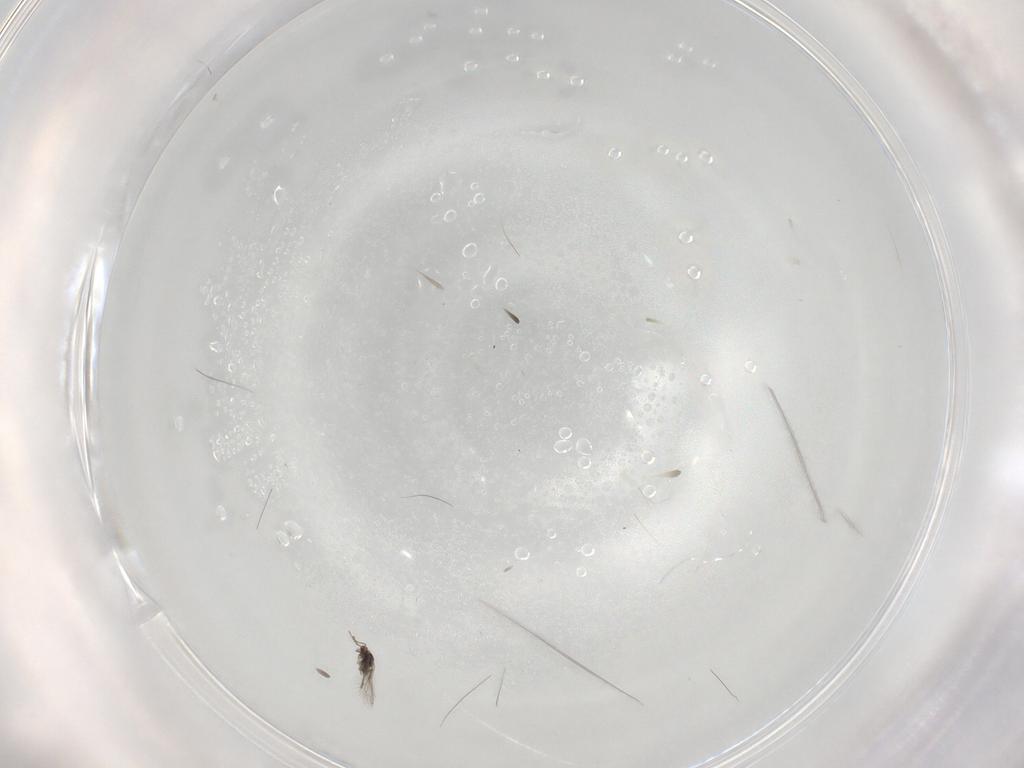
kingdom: Animalia
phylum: Arthropoda
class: Insecta
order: Hymenoptera
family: Mymaridae
